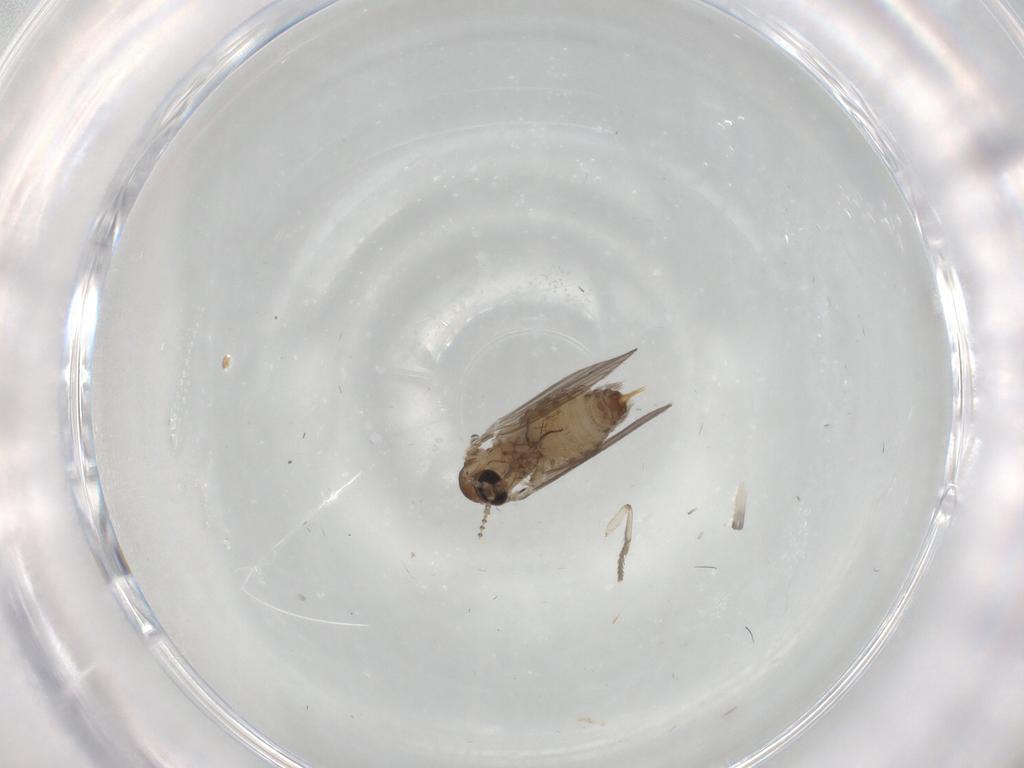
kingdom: Animalia
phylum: Arthropoda
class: Insecta
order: Diptera
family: Psychodidae
